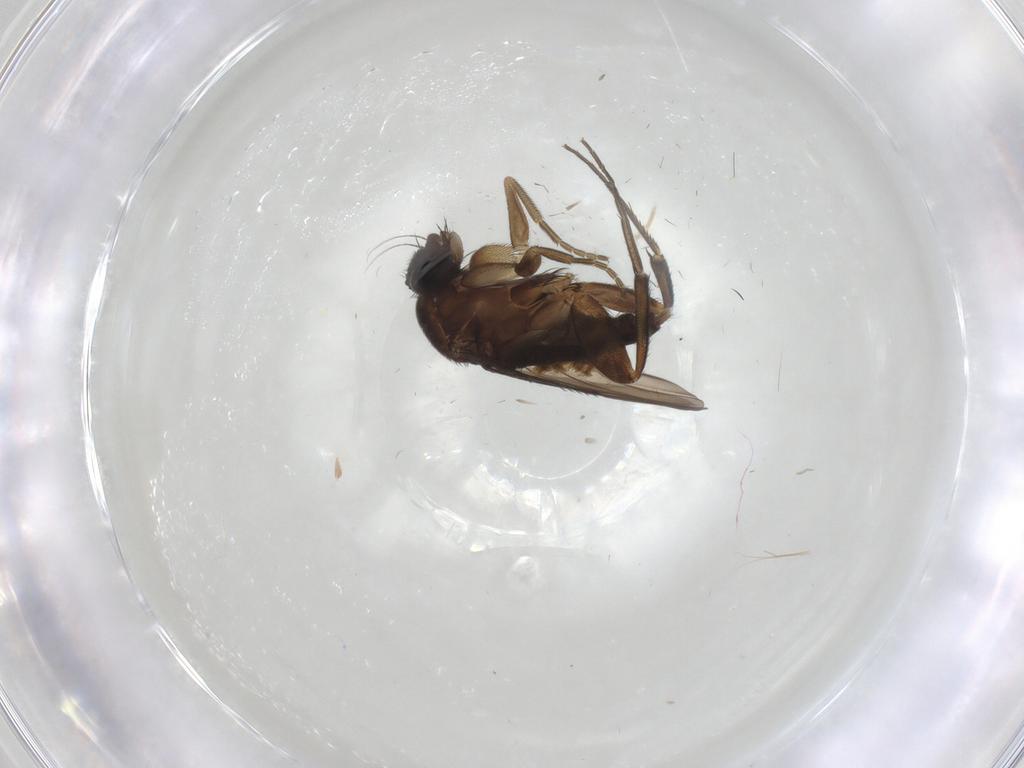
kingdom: Animalia
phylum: Arthropoda
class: Insecta
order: Diptera
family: Phoridae
